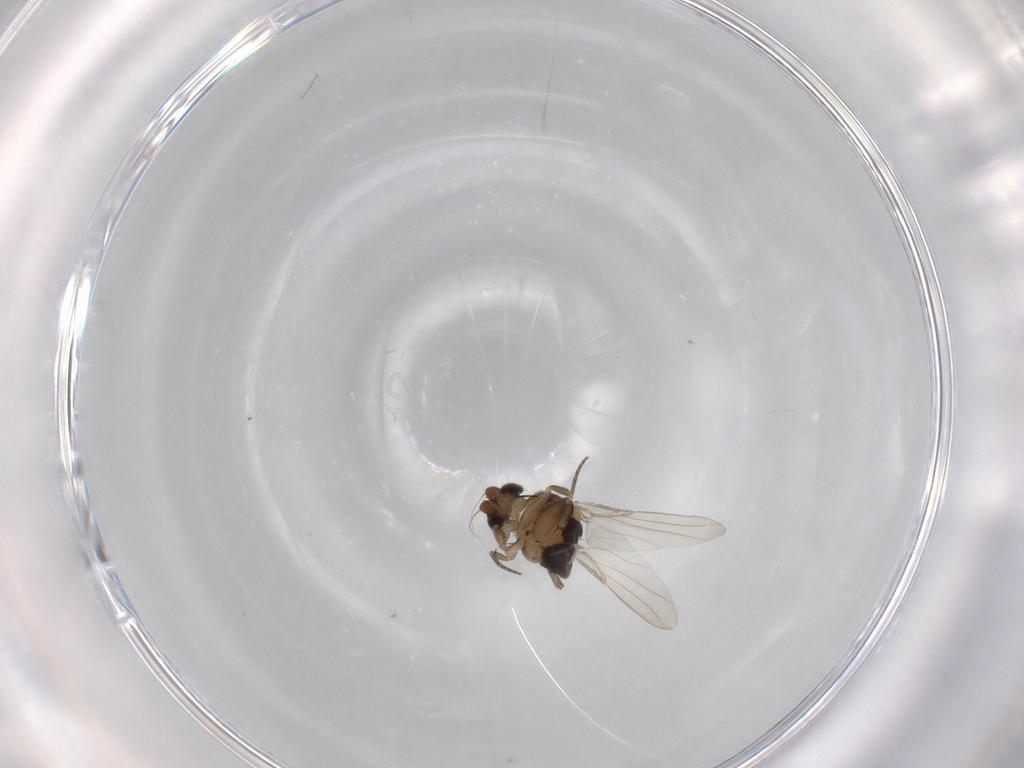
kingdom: Animalia
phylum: Arthropoda
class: Insecta
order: Diptera
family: Phoridae
